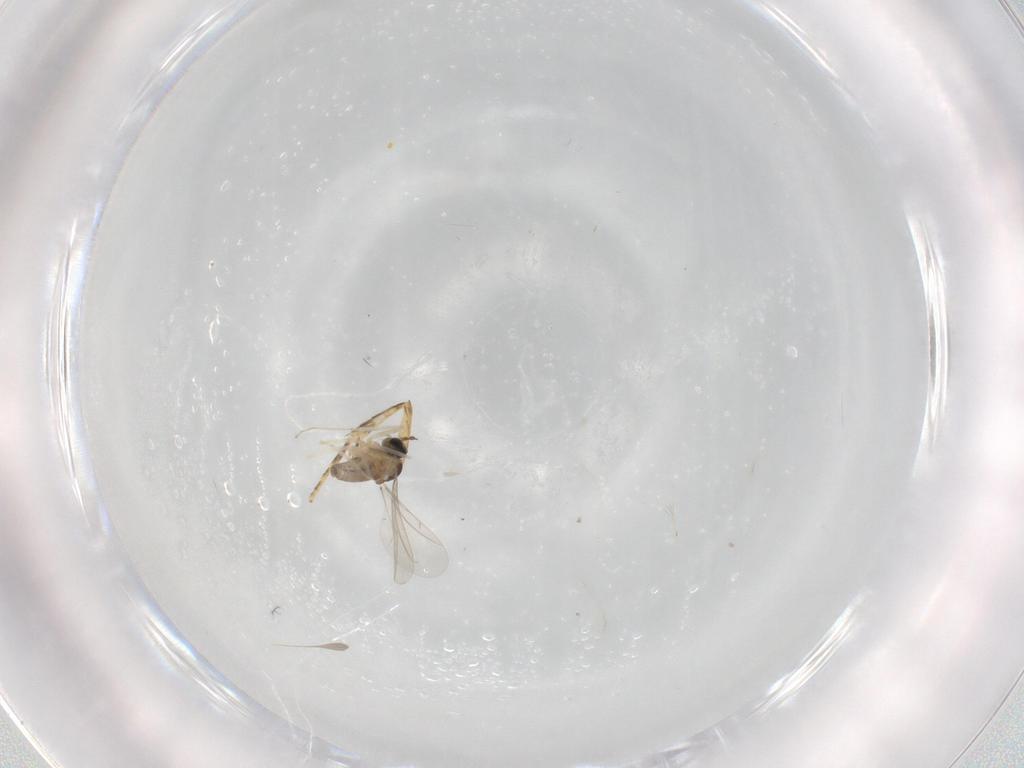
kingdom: Animalia
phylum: Arthropoda
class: Insecta
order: Diptera
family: Cecidomyiidae
